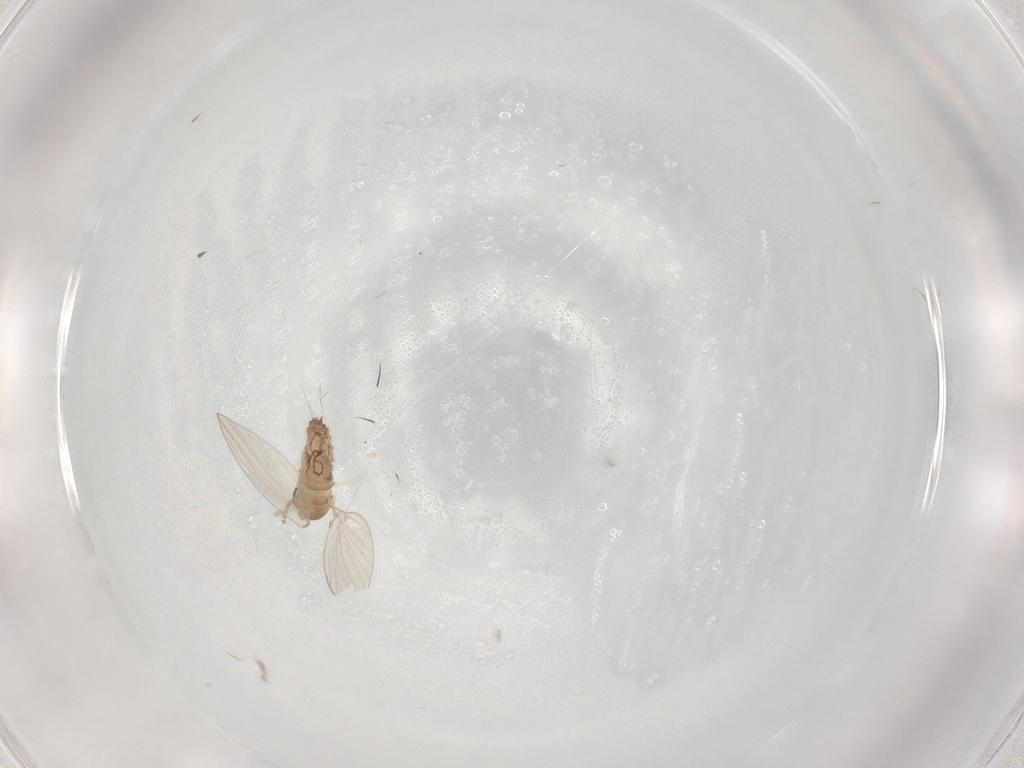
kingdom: Animalia
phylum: Arthropoda
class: Insecta
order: Diptera
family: Psychodidae
